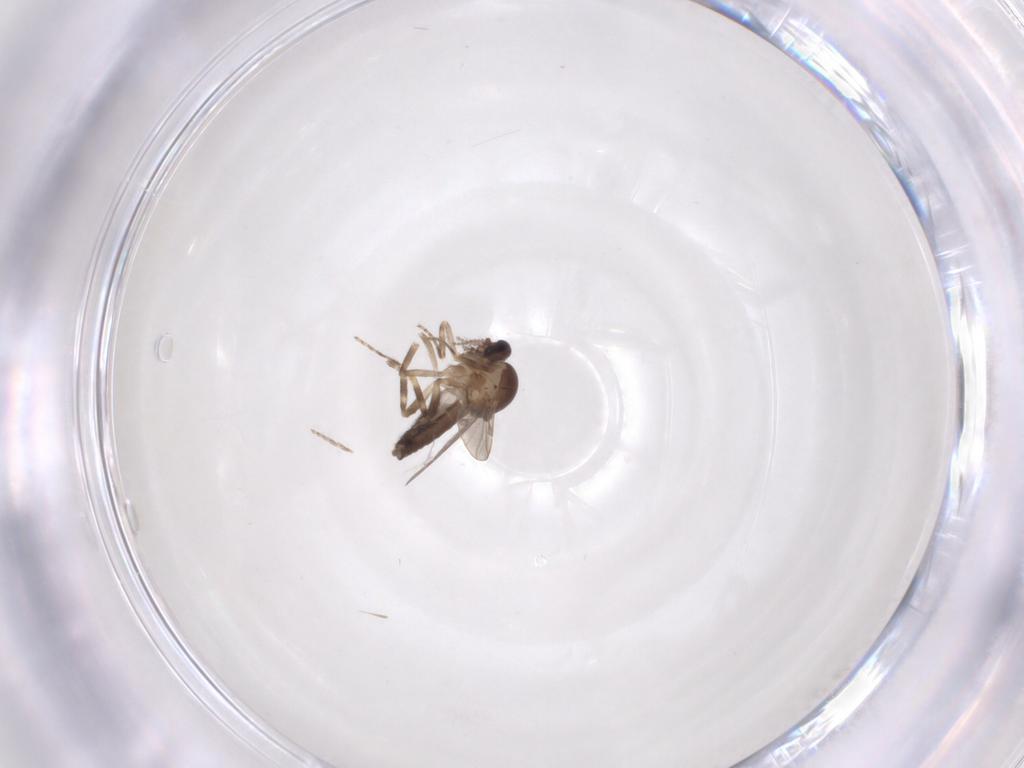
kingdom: Animalia
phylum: Arthropoda
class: Insecta
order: Diptera
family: Ceratopogonidae
